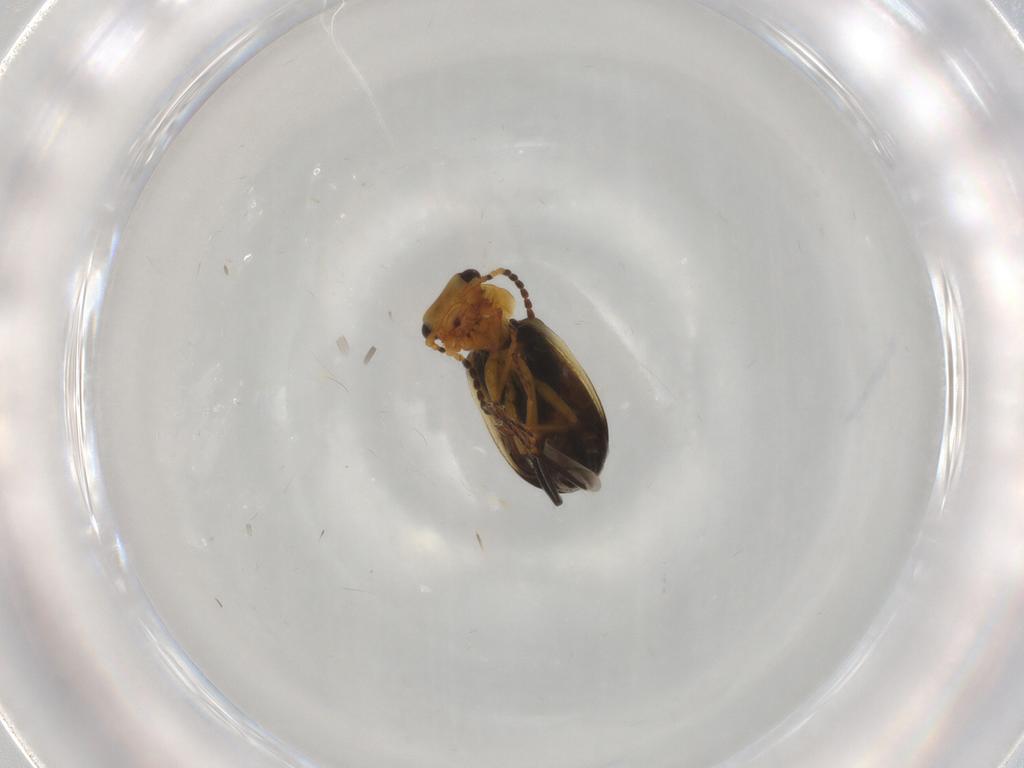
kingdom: Animalia
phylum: Arthropoda
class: Insecta
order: Coleoptera
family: Melyridae
